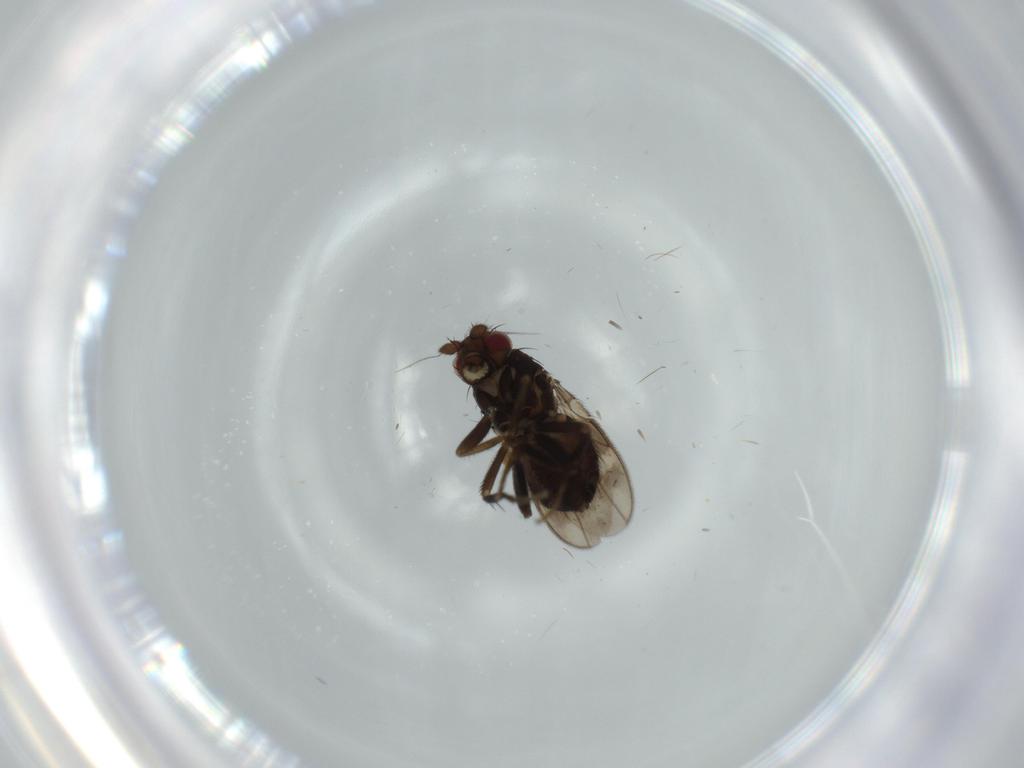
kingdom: Animalia
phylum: Arthropoda
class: Insecta
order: Diptera
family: Sphaeroceridae
